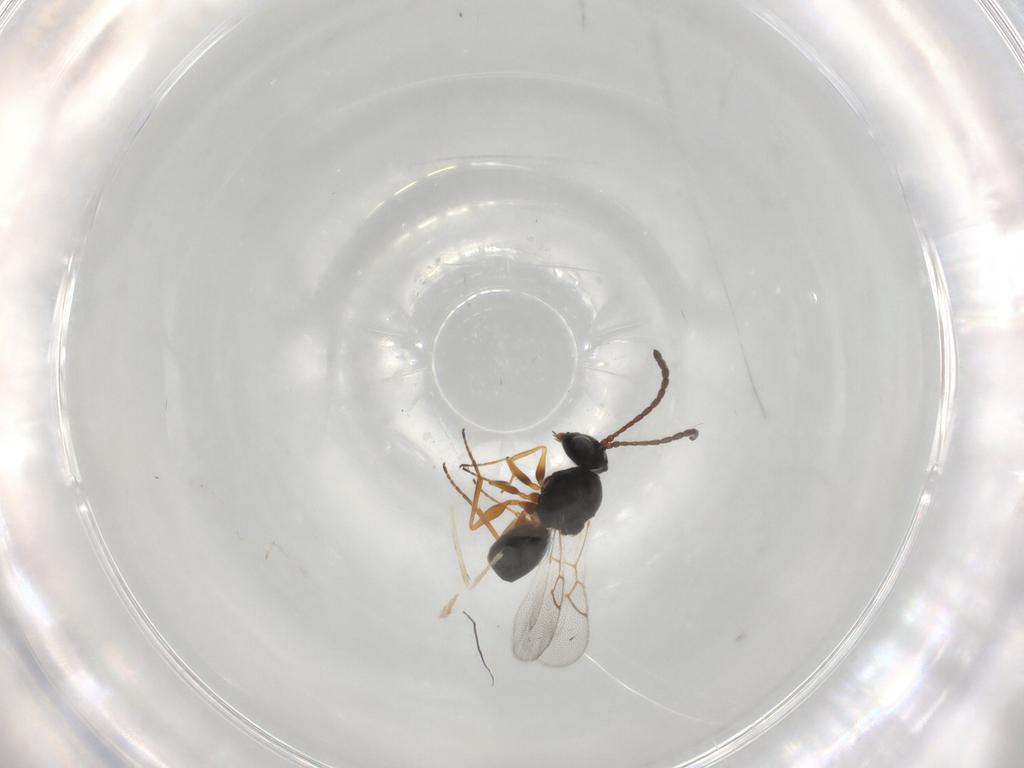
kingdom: Animalia
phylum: Arthropoda
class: Insecta
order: Hymenoptera
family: Figitidae
